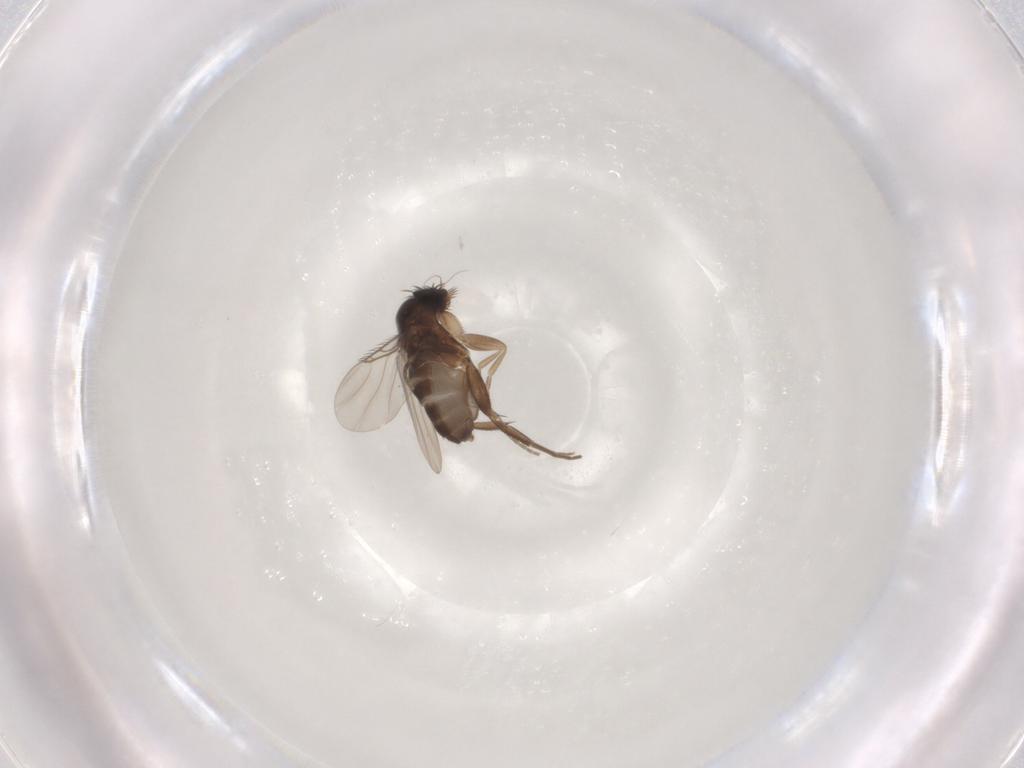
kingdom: Animalia
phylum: Arthropoda
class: Insecta
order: Diptera
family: Phoridae
